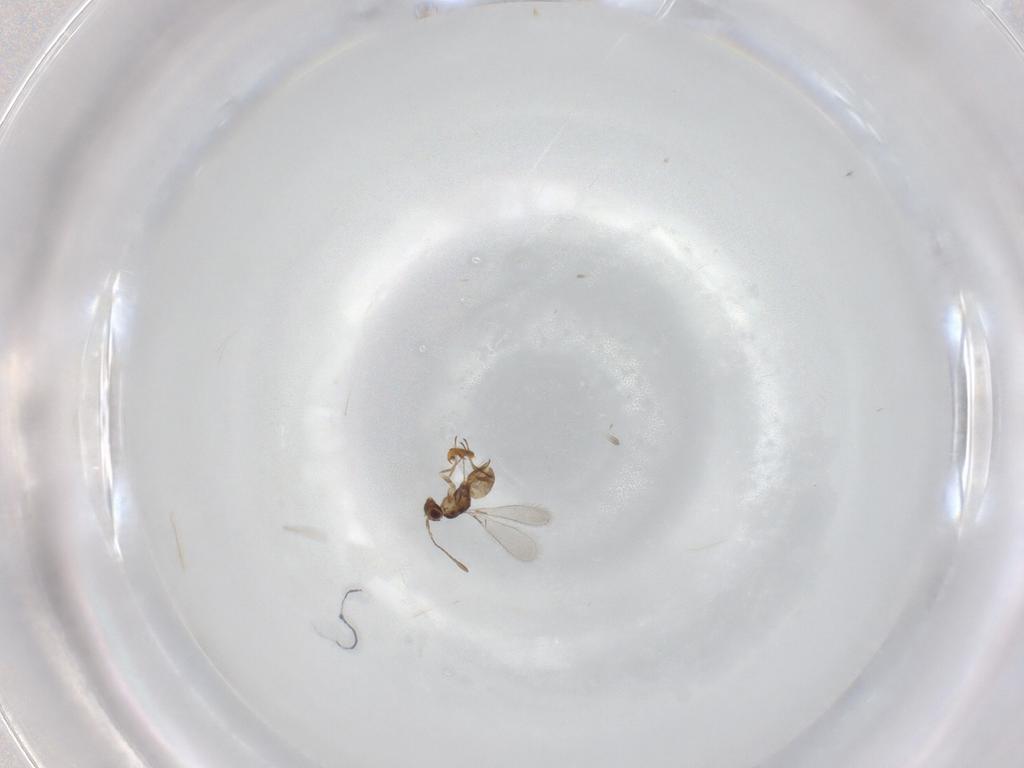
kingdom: Animalia
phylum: Arthropoda
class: Insecta
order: Hymenoptera
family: Mymaridae
